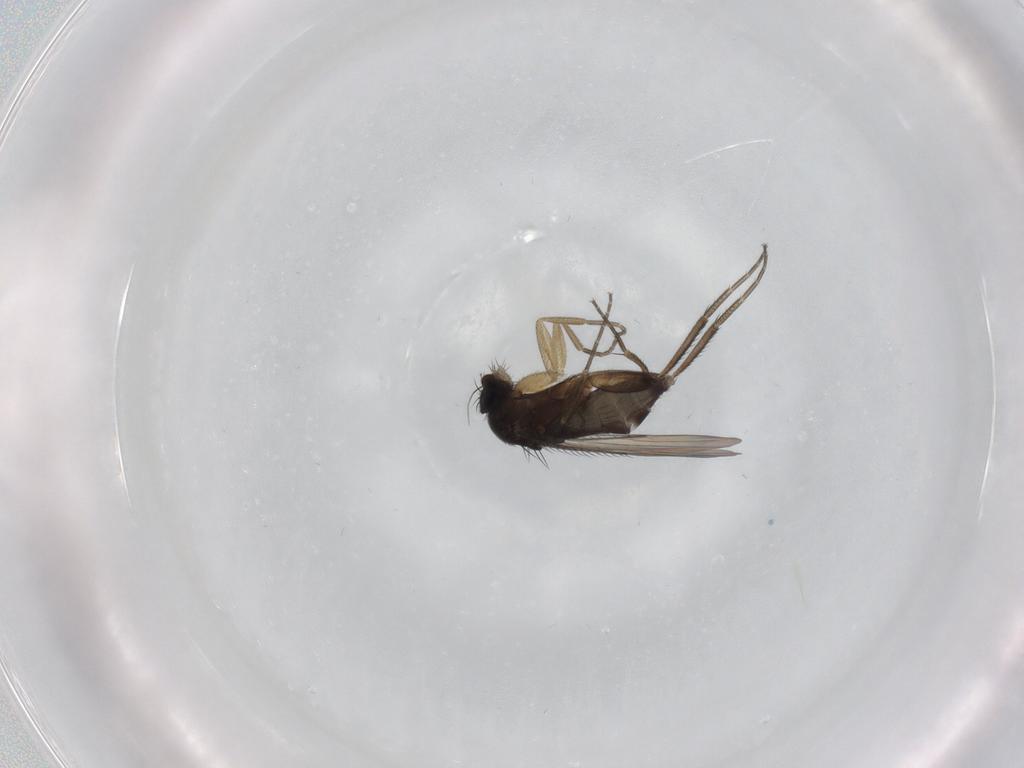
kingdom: Animalia
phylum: Arthropoda
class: Insecta
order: Diptera
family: Phoridae
